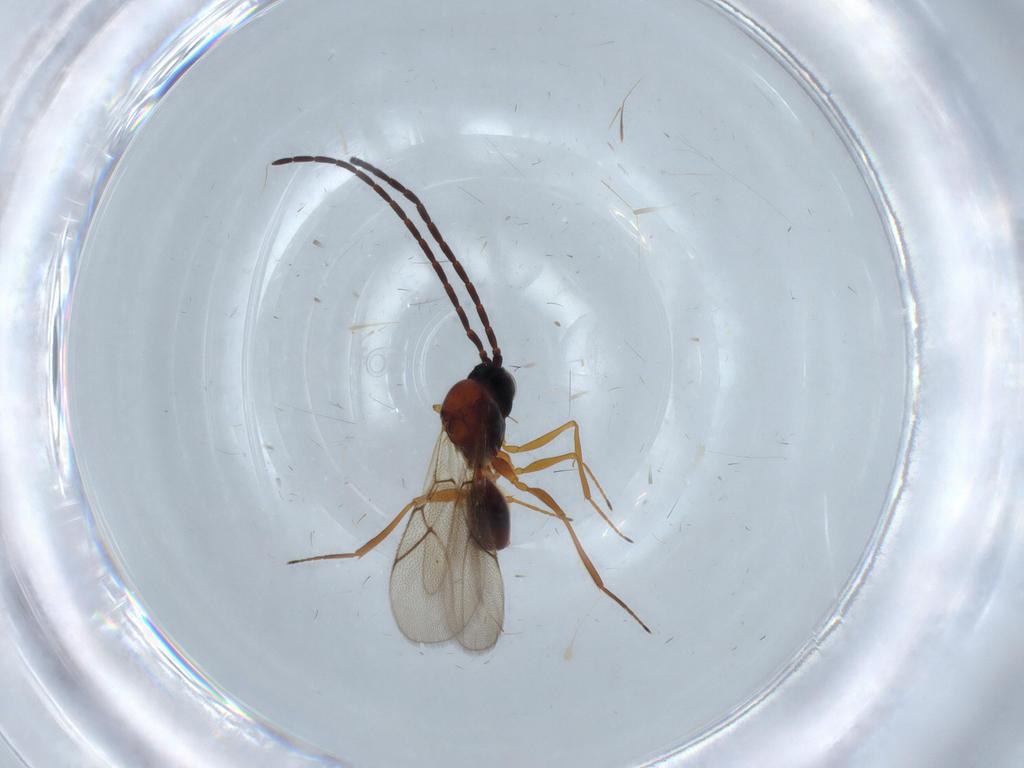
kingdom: Animalia
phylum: Arthropoda
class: Insecta
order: Hymenoptera
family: Figitidae
